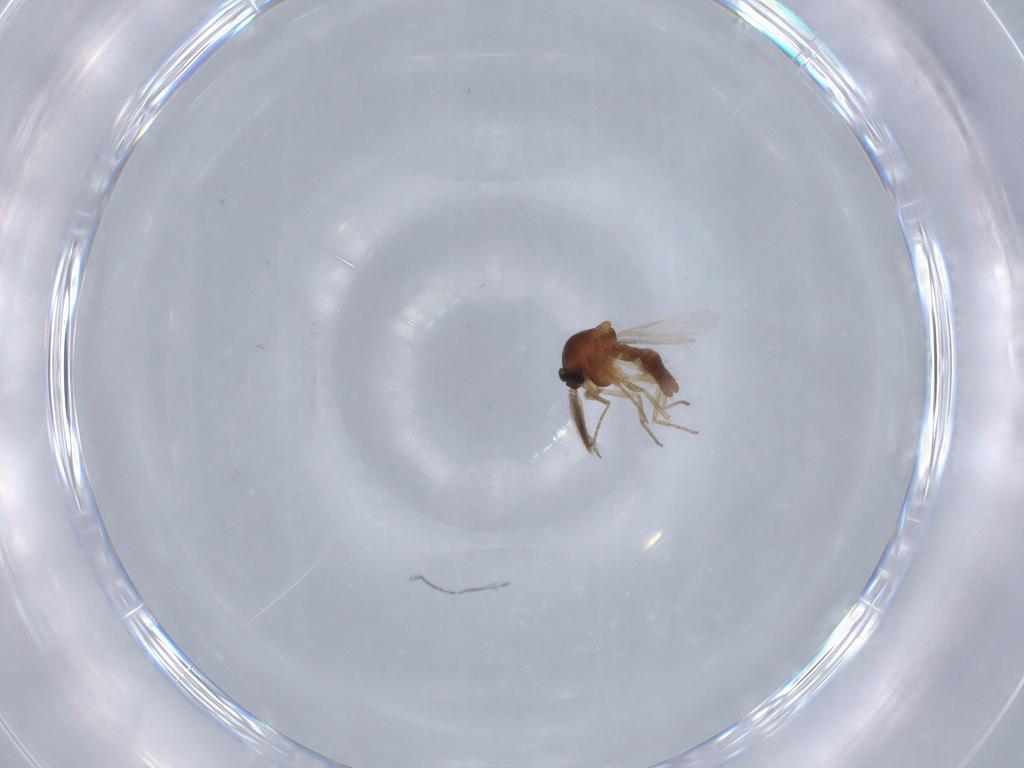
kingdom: Animalia
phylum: Arthropoda
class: Insecta
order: Diptera
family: Ceratopogonidae
